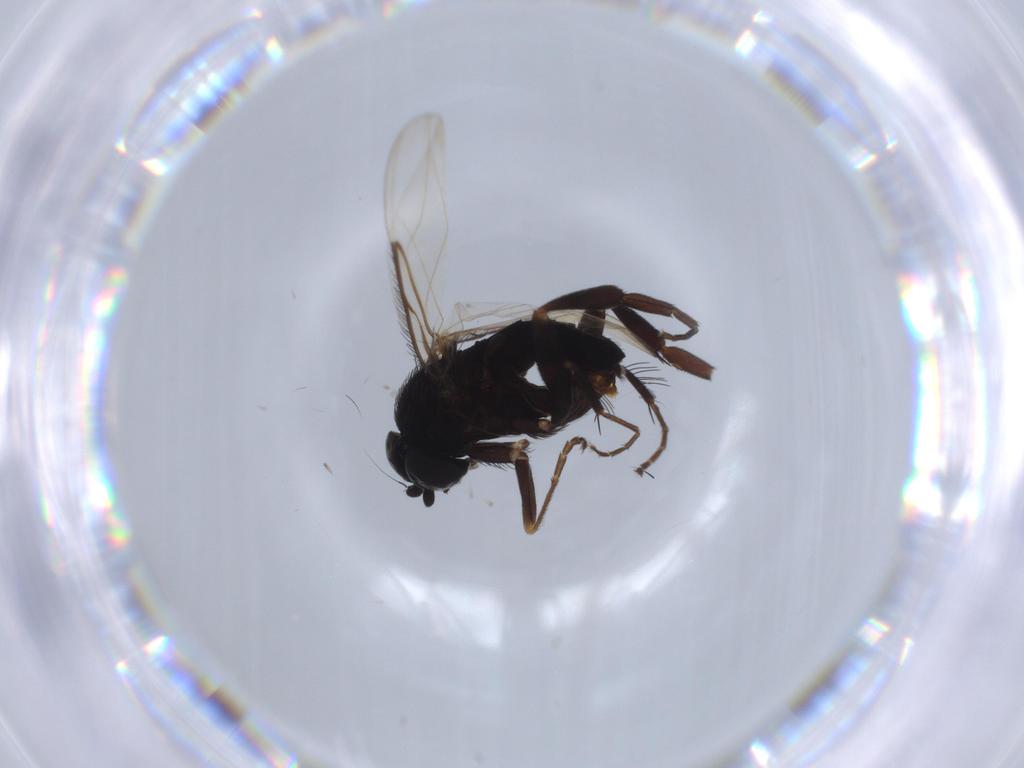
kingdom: Animalia
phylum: Arthropoda
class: Insecta
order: Diptera
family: Phoridae
